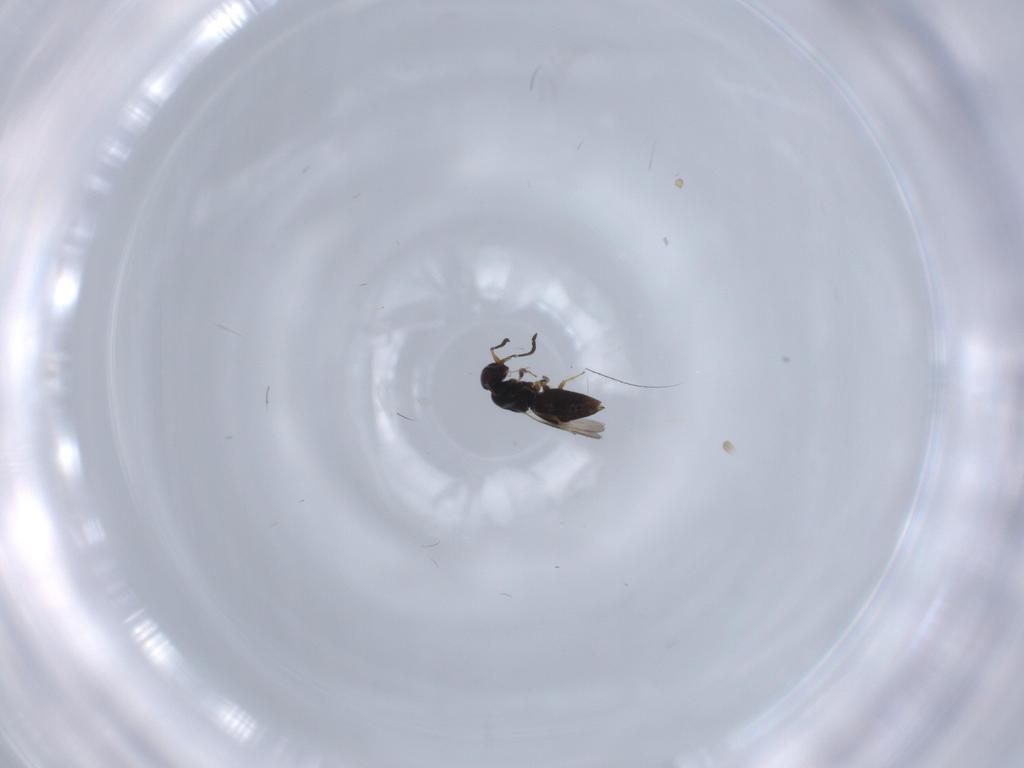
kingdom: Animalia
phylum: Arthropoda
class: Insecta
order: Hymenoptera
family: Ceraphronidae
